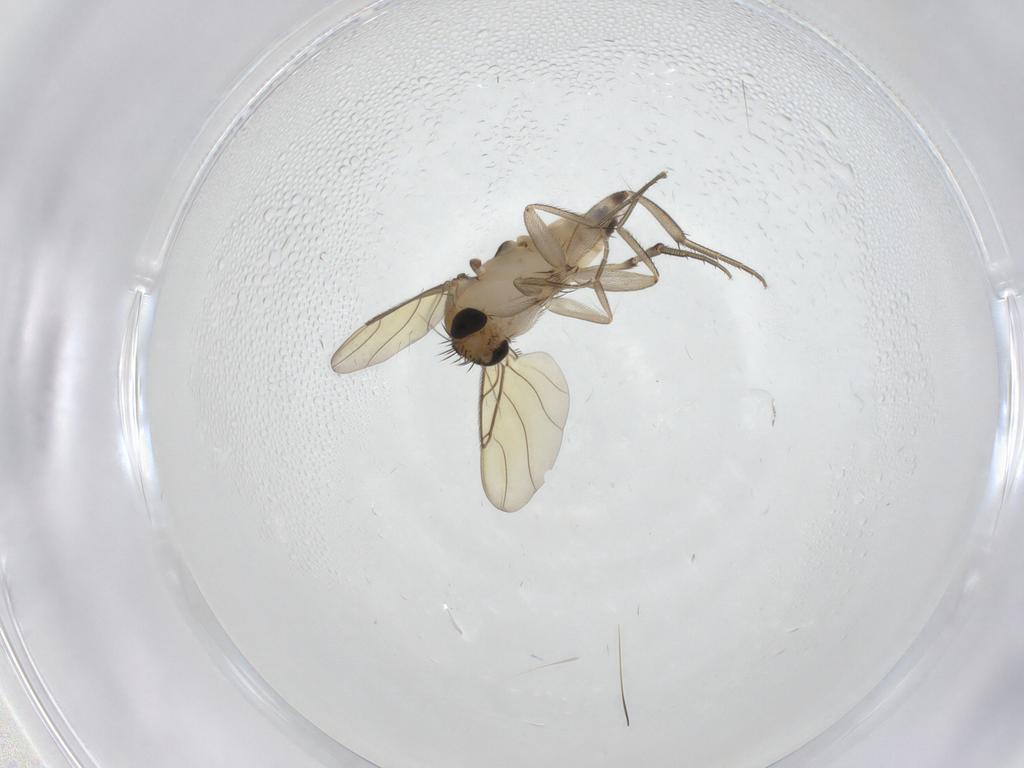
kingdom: Animalia
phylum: Arthropoda
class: Insecta
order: Diptera
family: Phoridae
